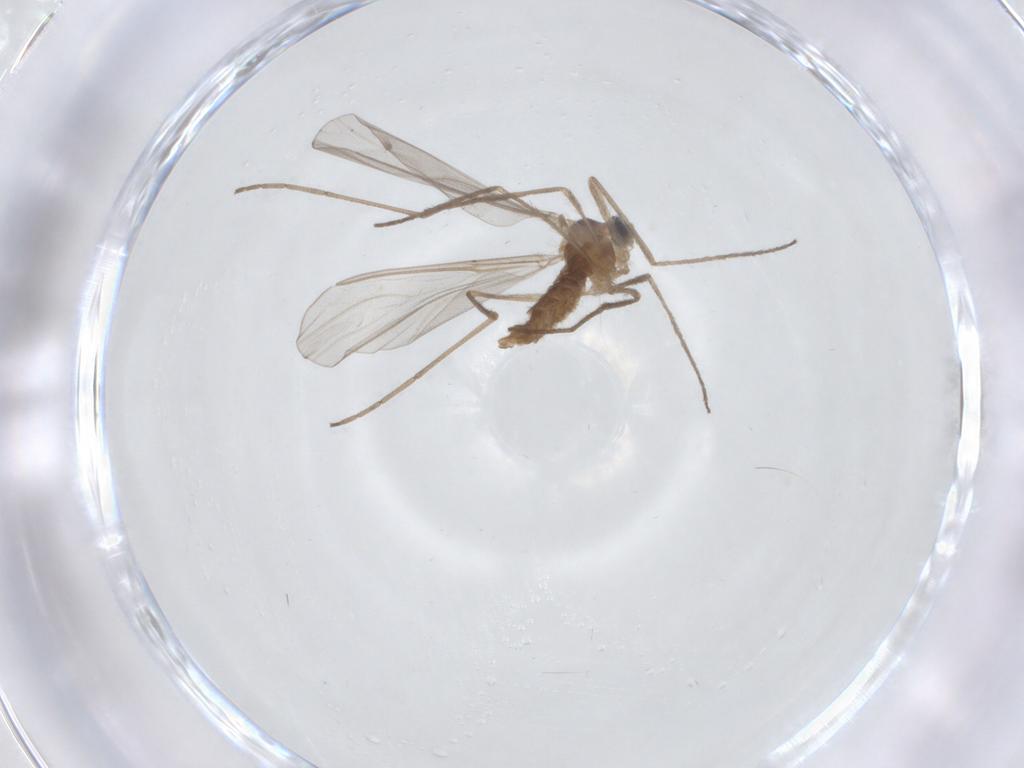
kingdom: Animalia
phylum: Arthropoda
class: Insecta
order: Diptera
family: Cecidomyiidae
